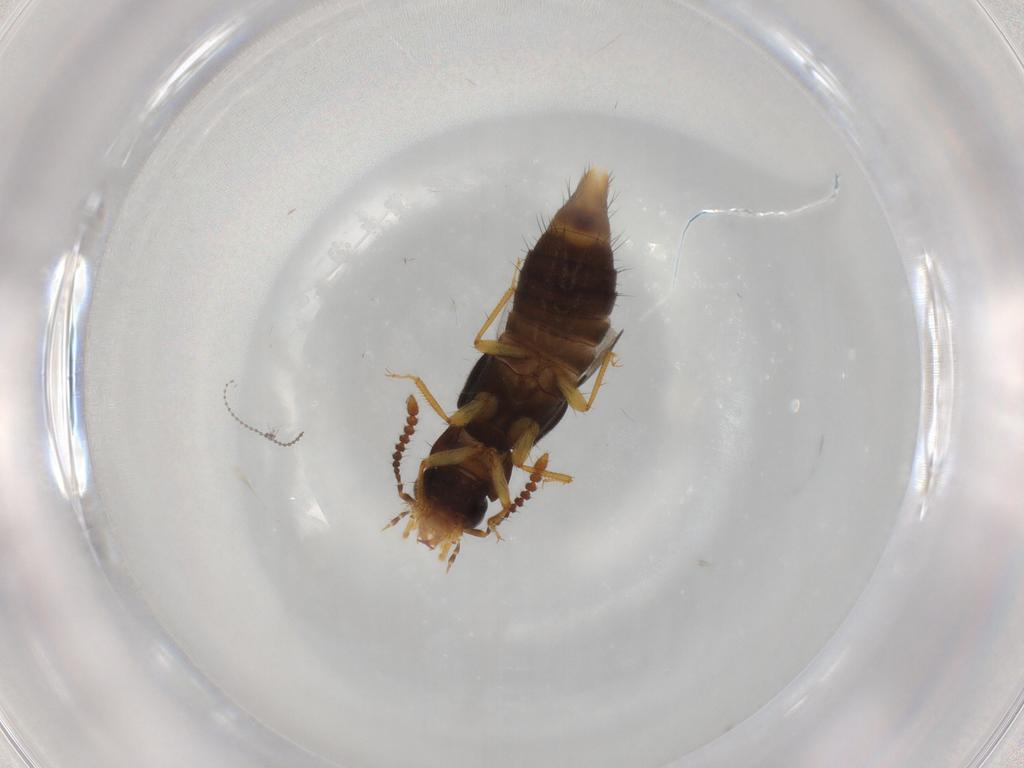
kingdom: Animalia
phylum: Arthropoda
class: Insecta
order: Coleoptera
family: Staphylinidae
